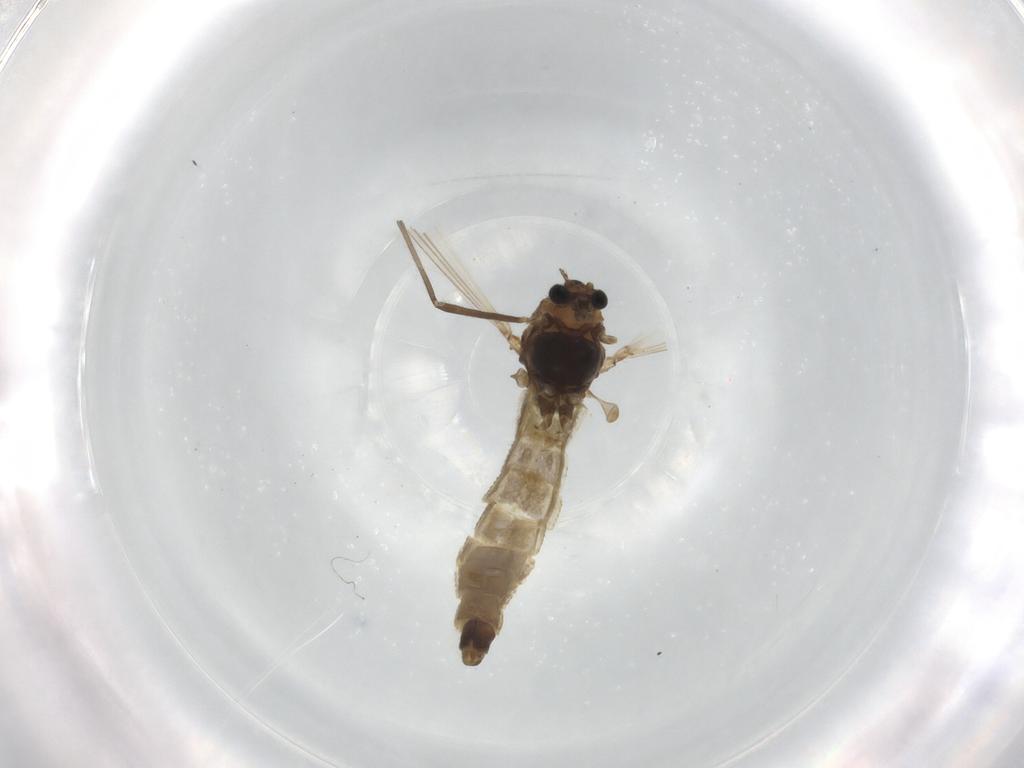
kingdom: Animalia
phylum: Arthropoda
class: Insecta
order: Diptera
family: Chironomidae
